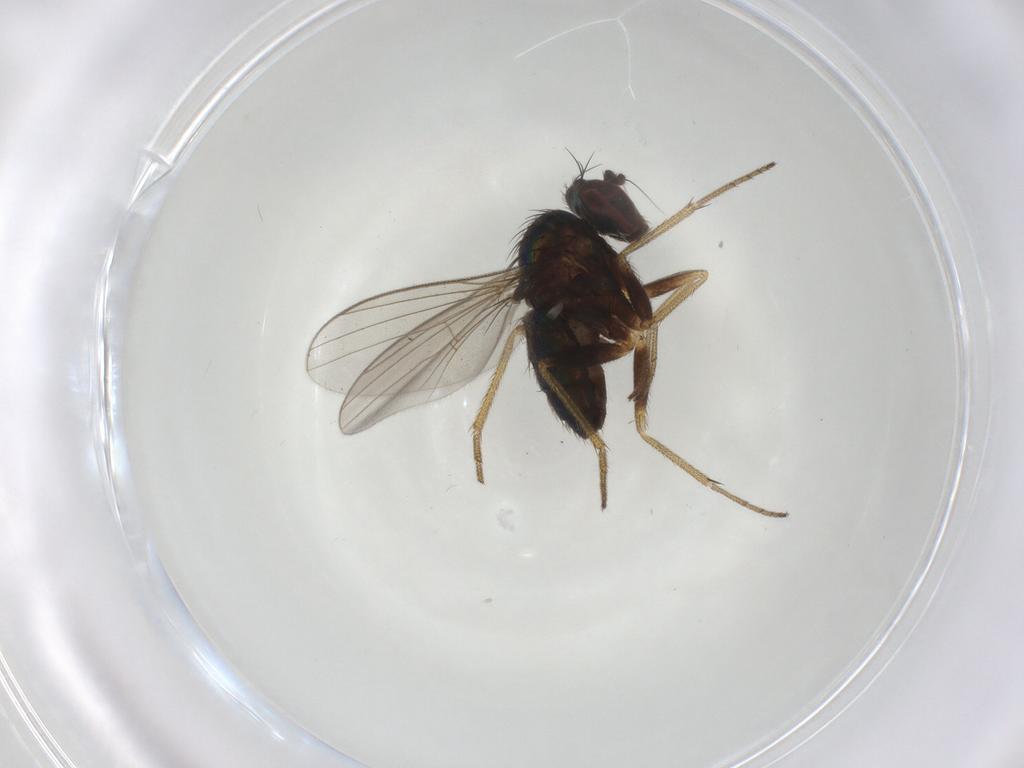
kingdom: Animalia
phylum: Arthropoda
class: Insecta
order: Diptera
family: Dolichopodidae
